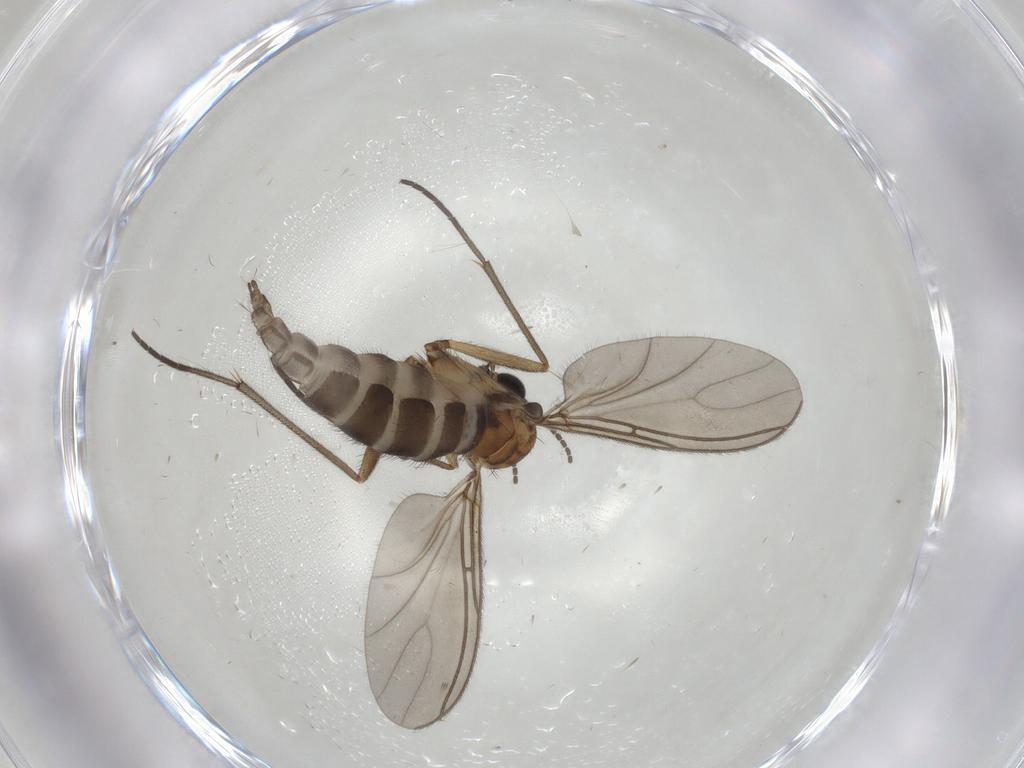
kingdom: Animalia
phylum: Arthropoda
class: Insecta
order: Diptera
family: Sciaridae
